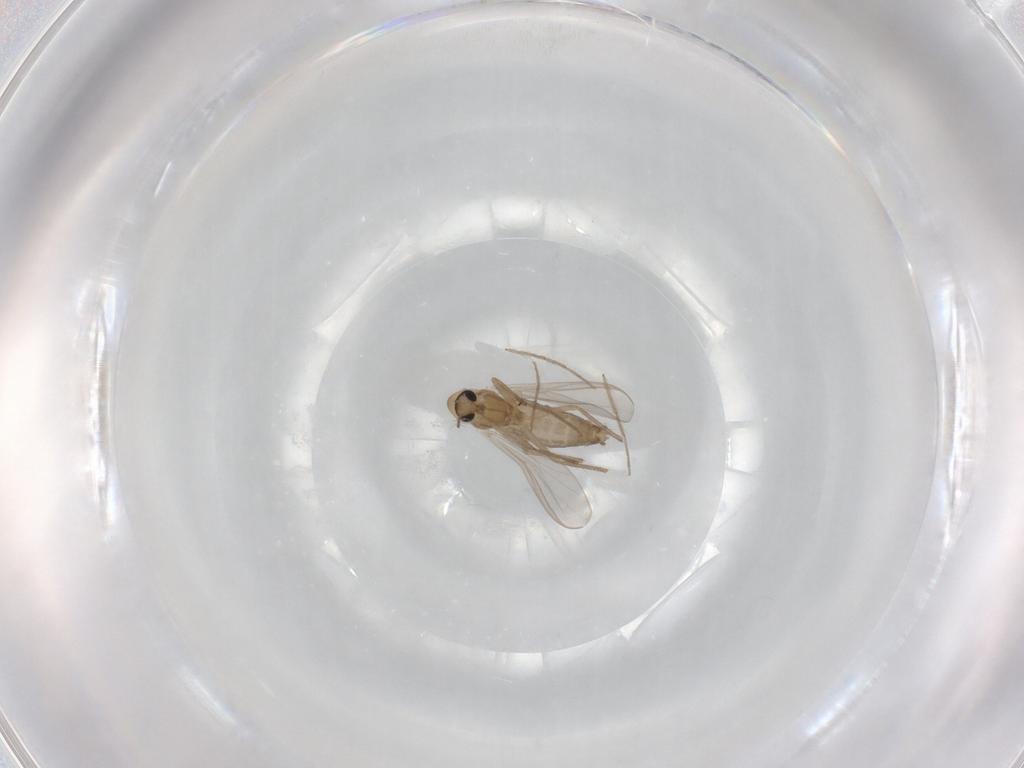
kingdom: Animalia
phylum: Arthropoda
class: Insecta
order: Diptera
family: Chironomidae
